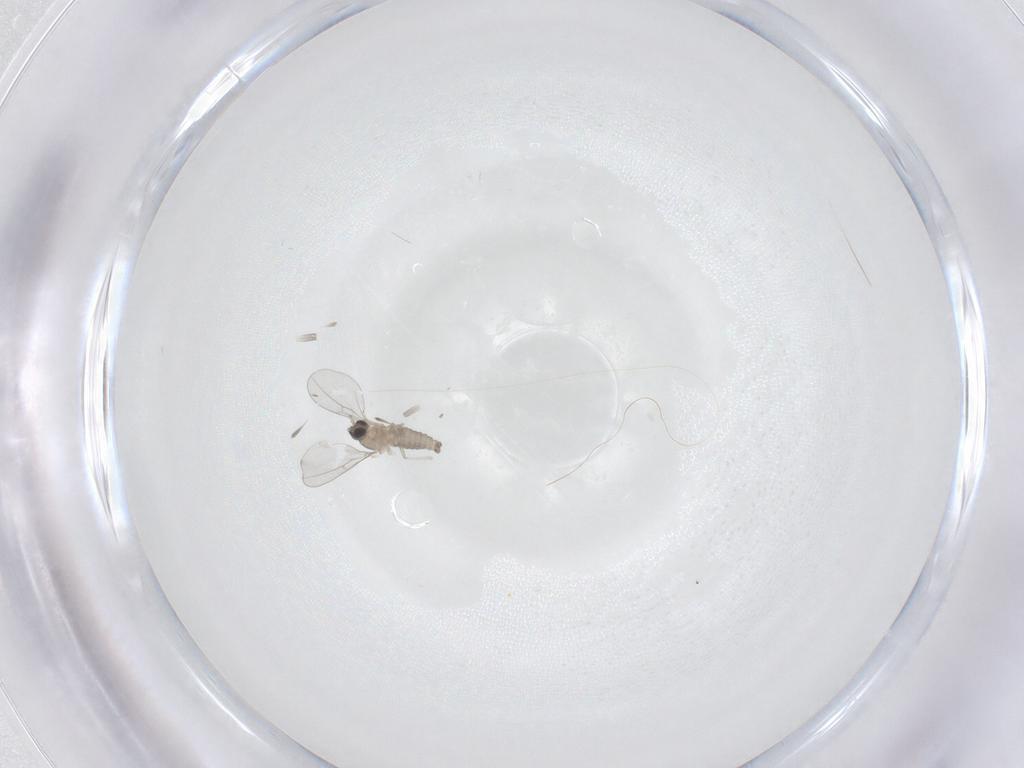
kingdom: Animalia
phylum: Arthropoda
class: Insecta
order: Diptera
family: Cecidomyiidae
